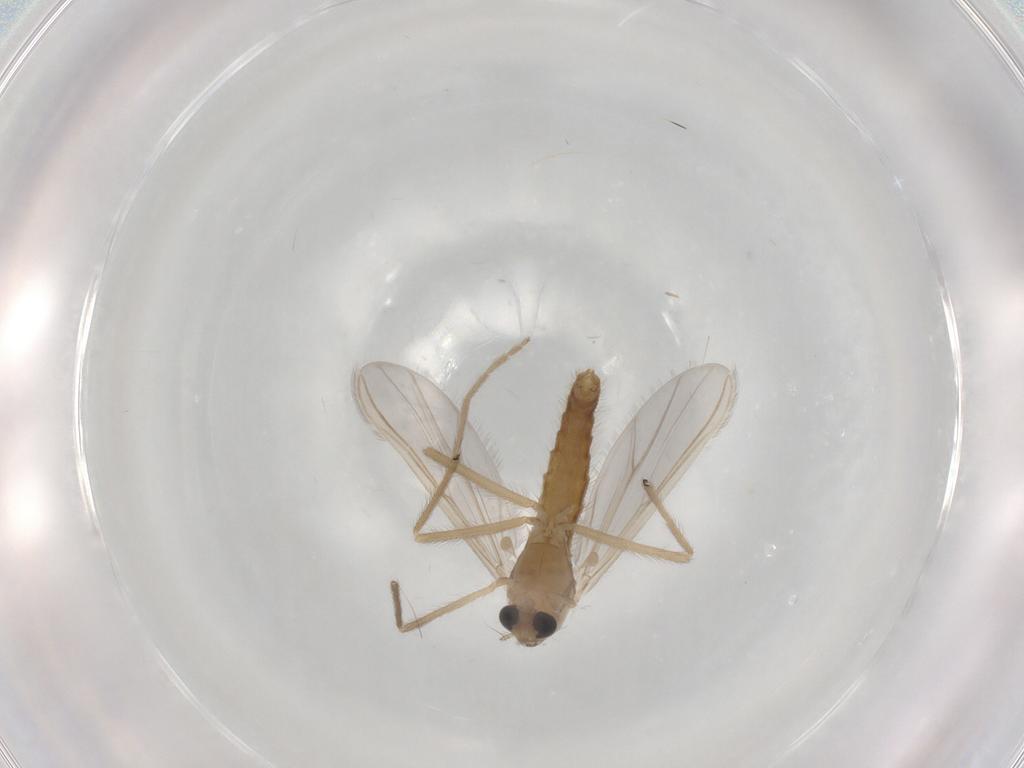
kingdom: Animalia
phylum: Arthropoda
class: Insecta
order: Diptera
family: Chironomidae
